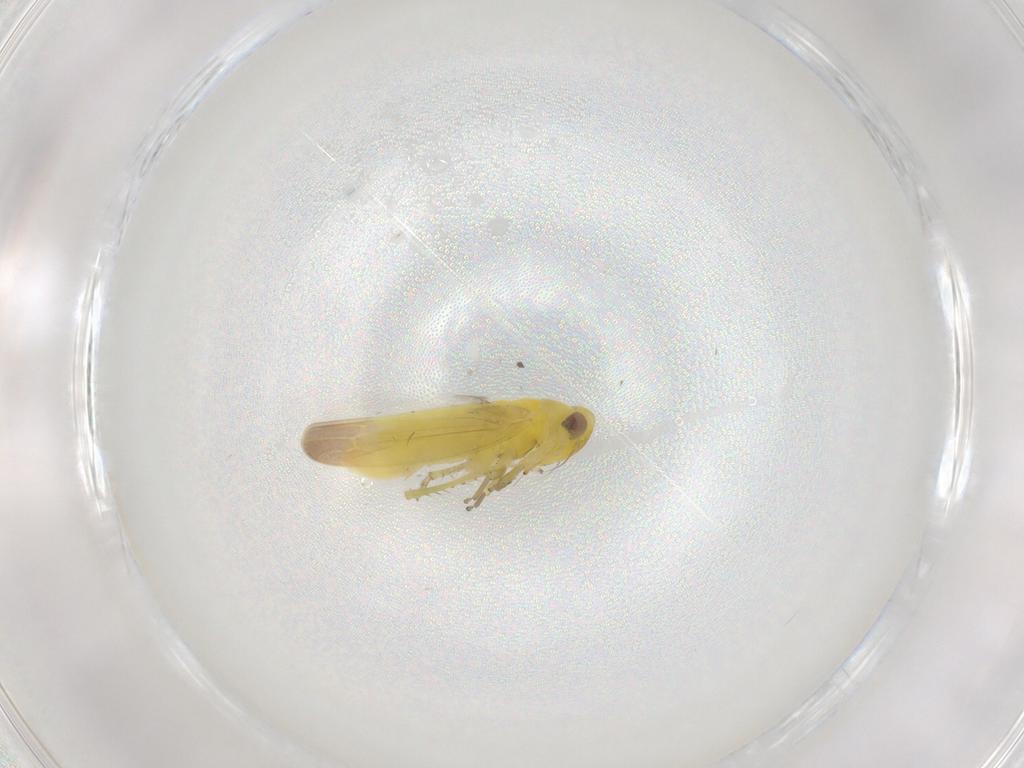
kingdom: Animalia
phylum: Arthropoda
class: Insecta
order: Hemiptera
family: Cicadellidae
